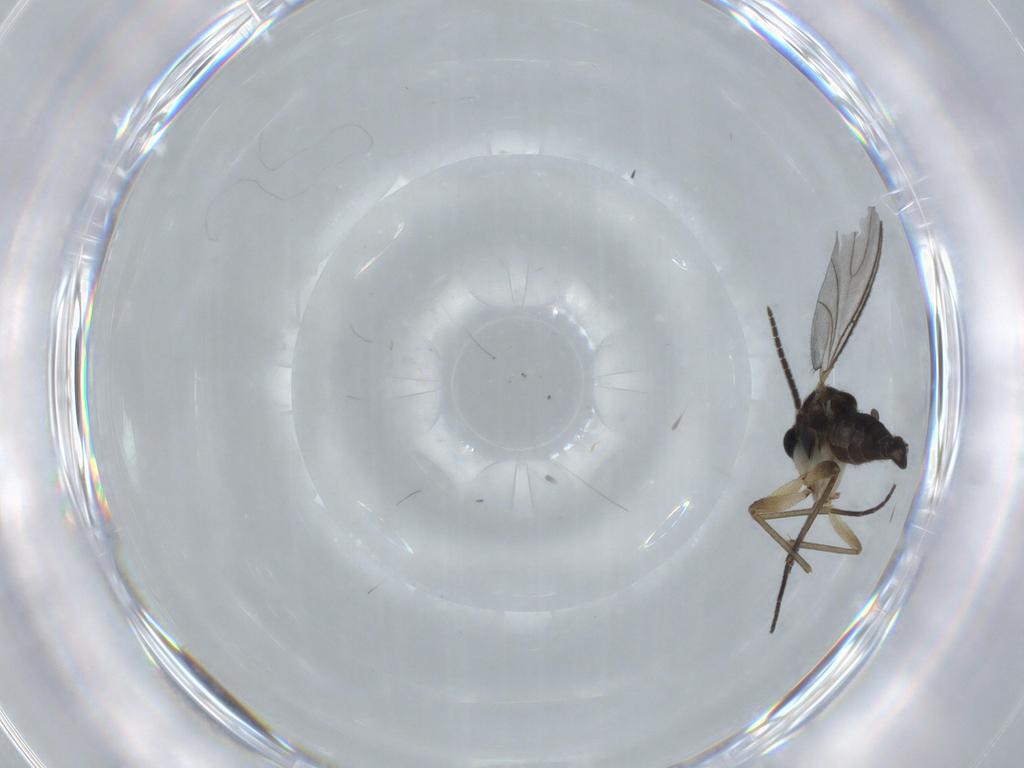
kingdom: Animalia
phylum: Arthropoda
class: Insecta
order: Diptera
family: Sciaridae
